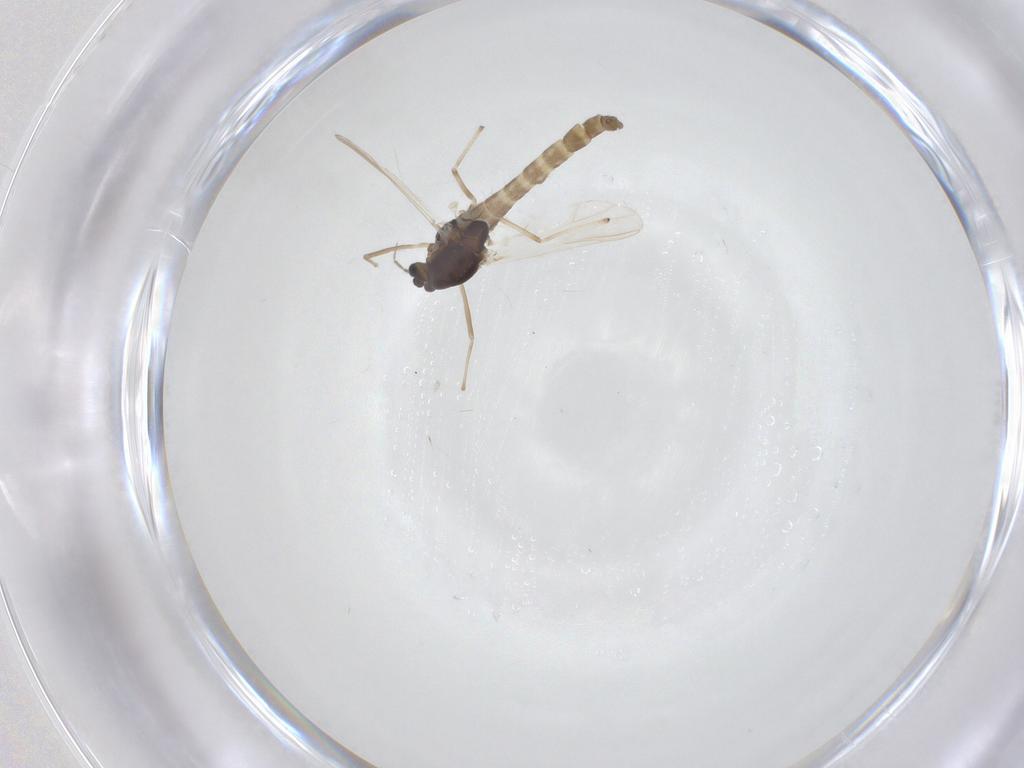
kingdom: Animalia
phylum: Arthropoda
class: Insecta
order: Diptera
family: Chironomidae
